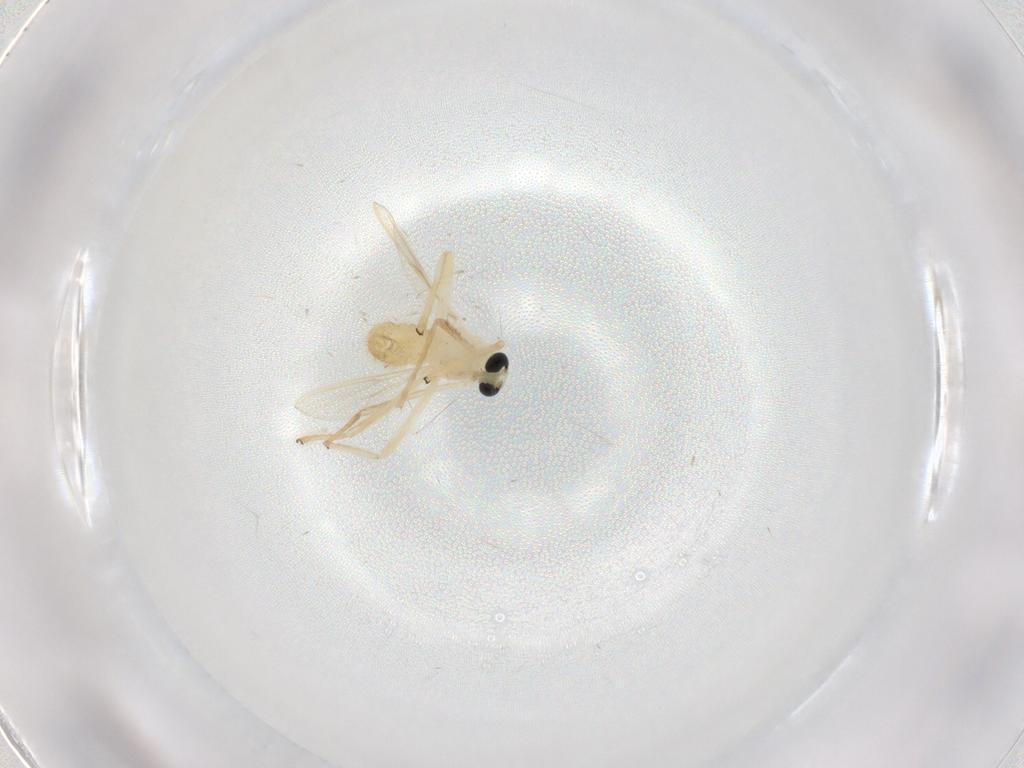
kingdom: Animalia
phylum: Arthropoda
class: Insecta
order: Diptera
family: Chironomidae
